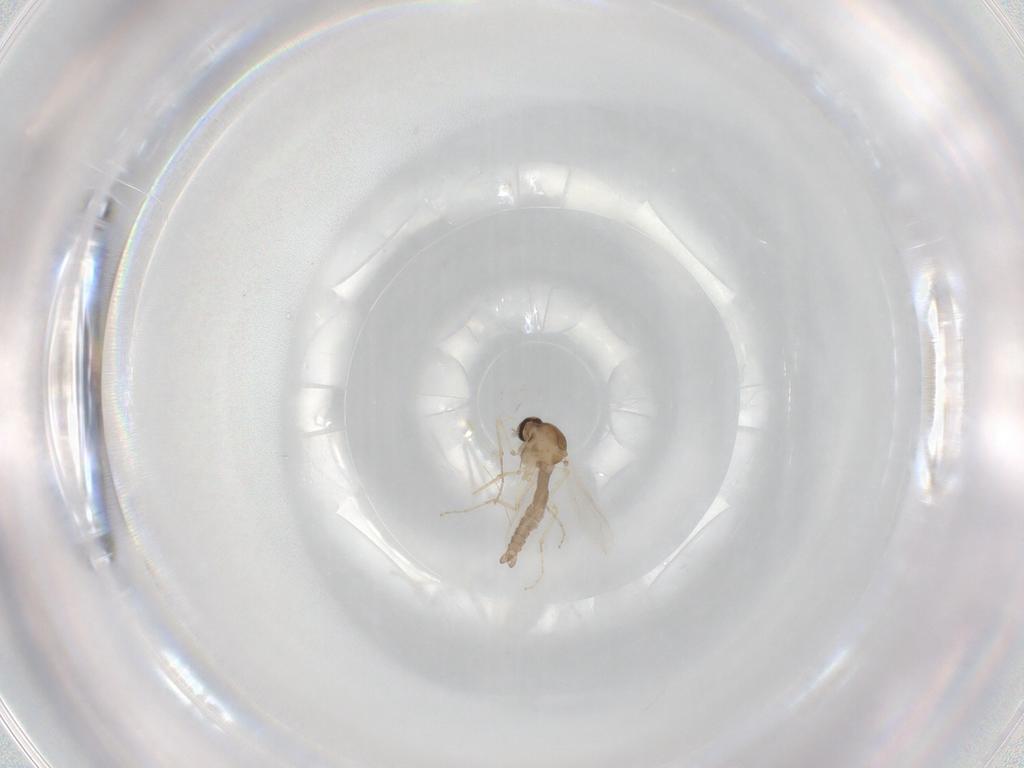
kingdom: Animalia
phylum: Arthropoda
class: Insecta
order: Diptera
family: Ceratopogonidae
